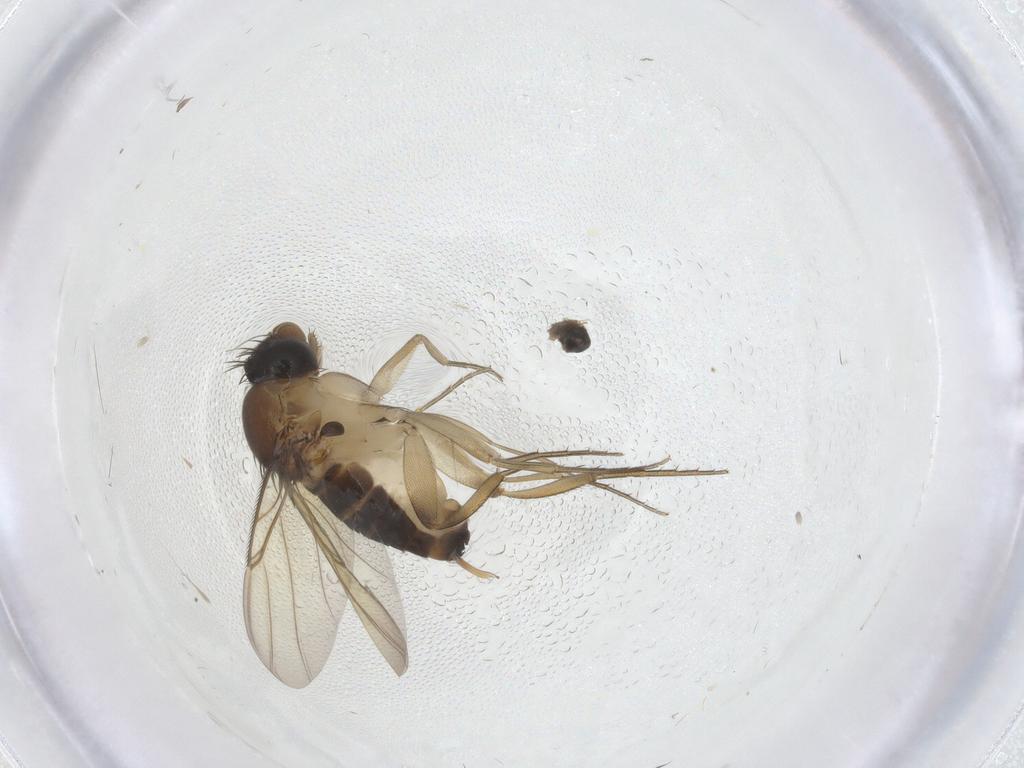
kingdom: Animalia
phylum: Arthropoda
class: Insecta
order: Diptera
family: Phoridae
